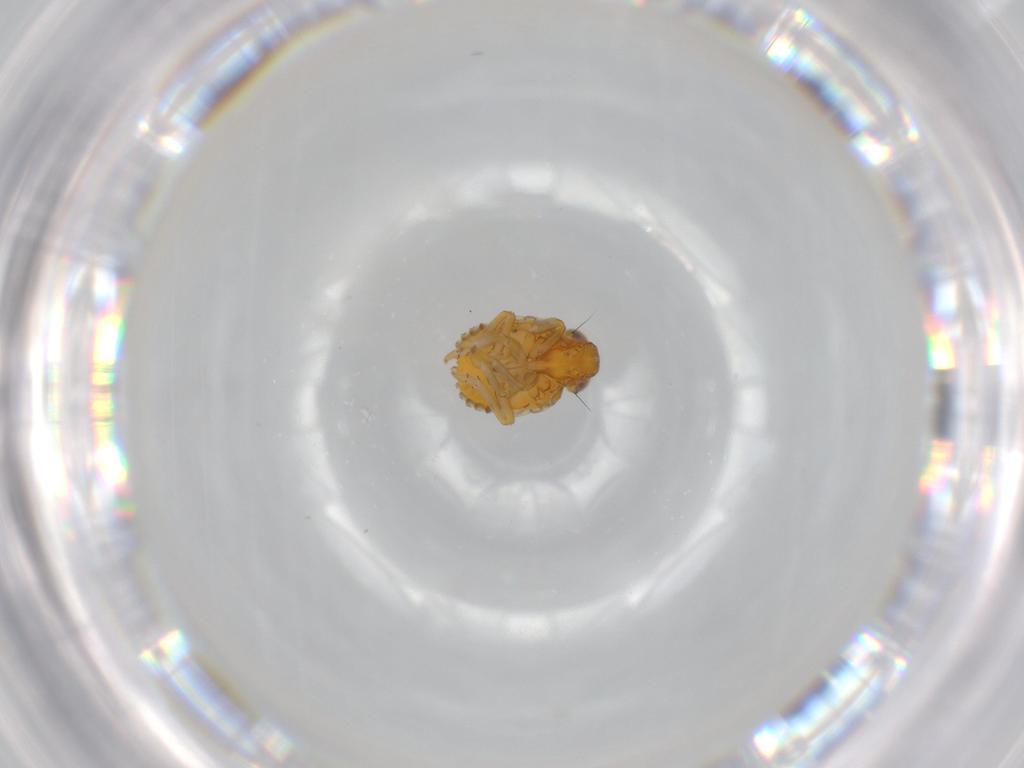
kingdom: Animalia
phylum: Arthropoda
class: Insecta
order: Hemiptera
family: Issidae
